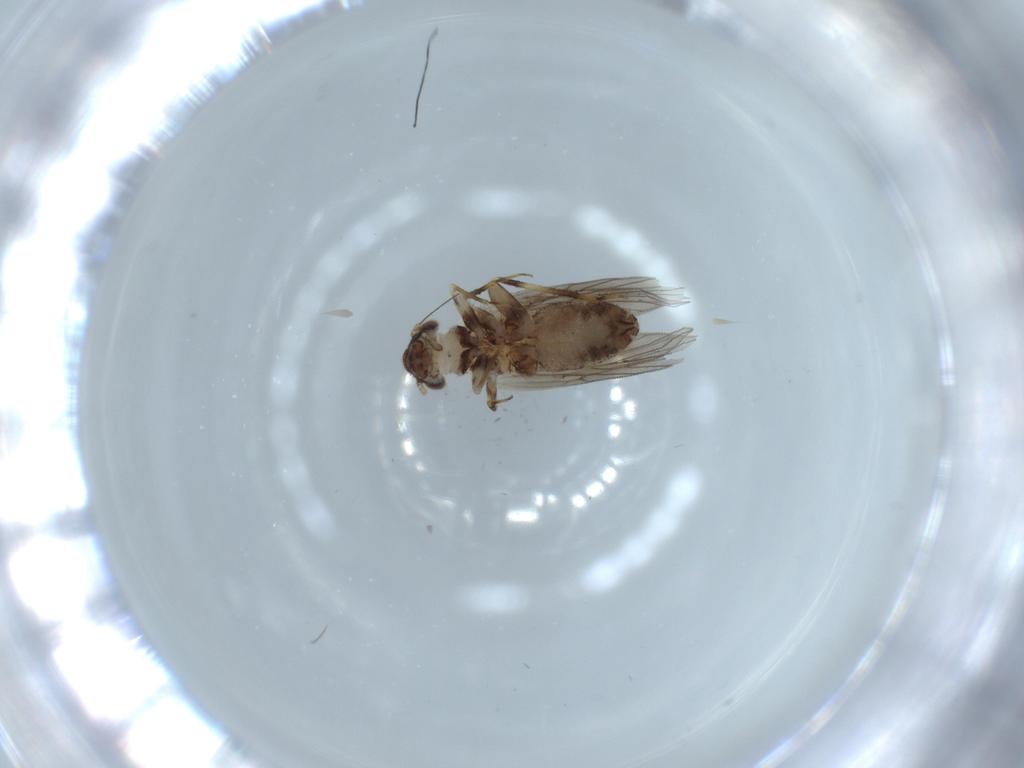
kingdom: Animalia
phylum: Arthropoda
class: Insecta
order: Psocodea
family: Lepidopsocidae
